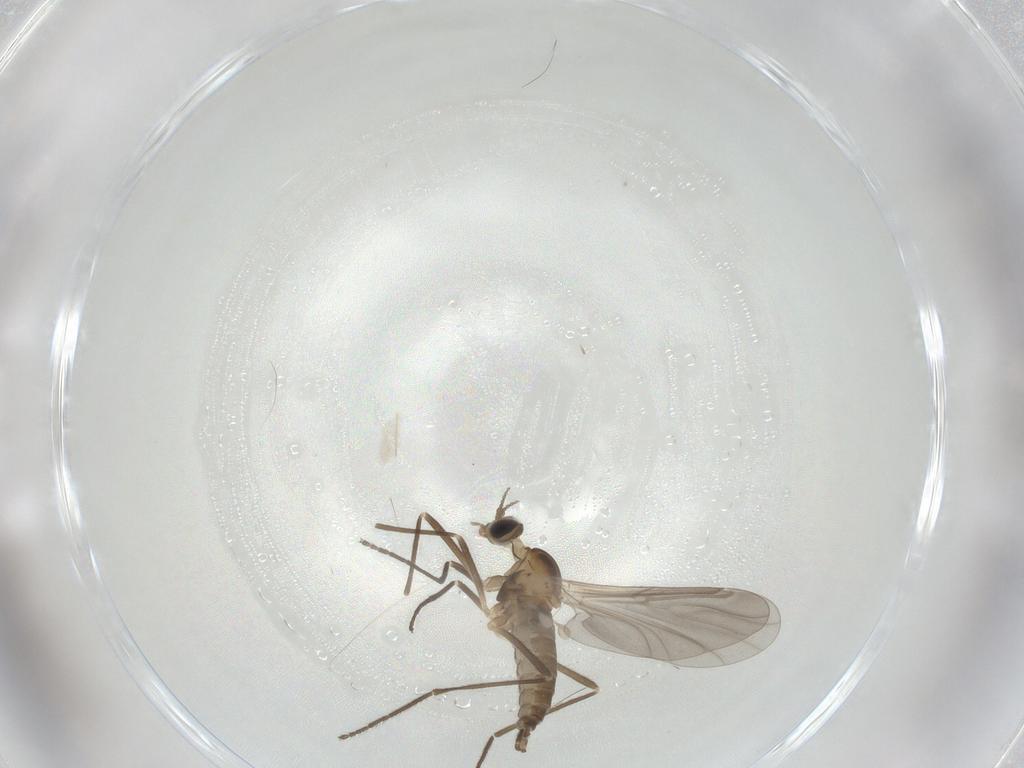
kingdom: Animalia
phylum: Arthropoda
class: Insecta
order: Diptera
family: Cecidomyiidae
